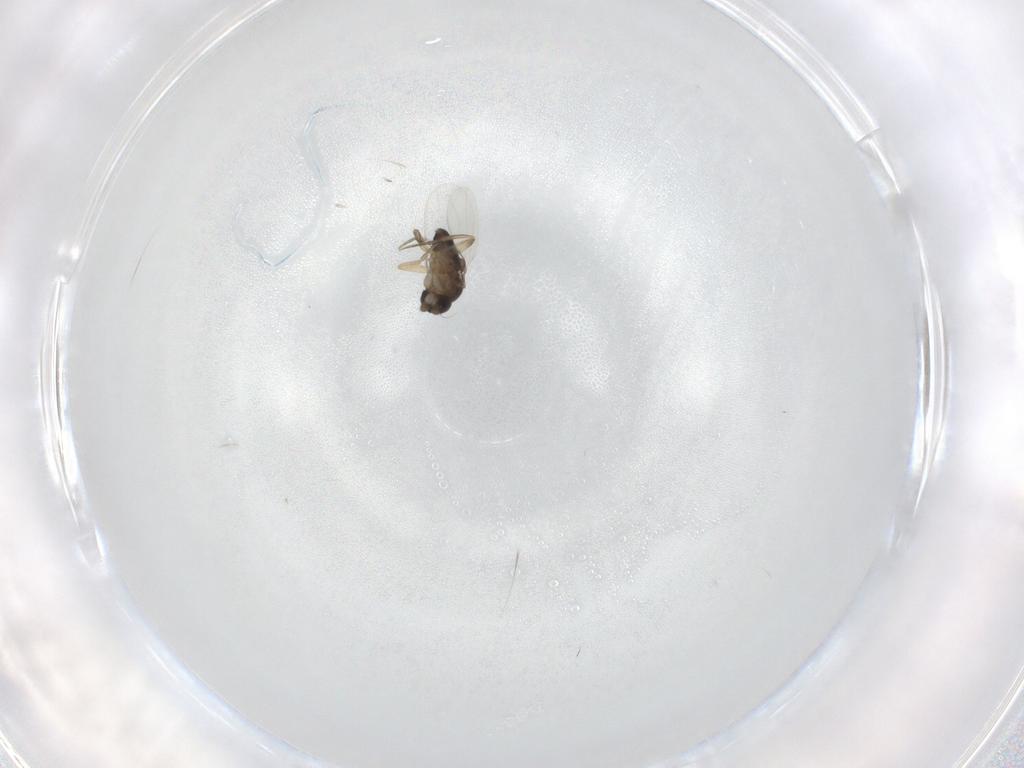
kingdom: Animalia
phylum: Arthropoda
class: Insecta
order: Diptera
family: Phoridae
